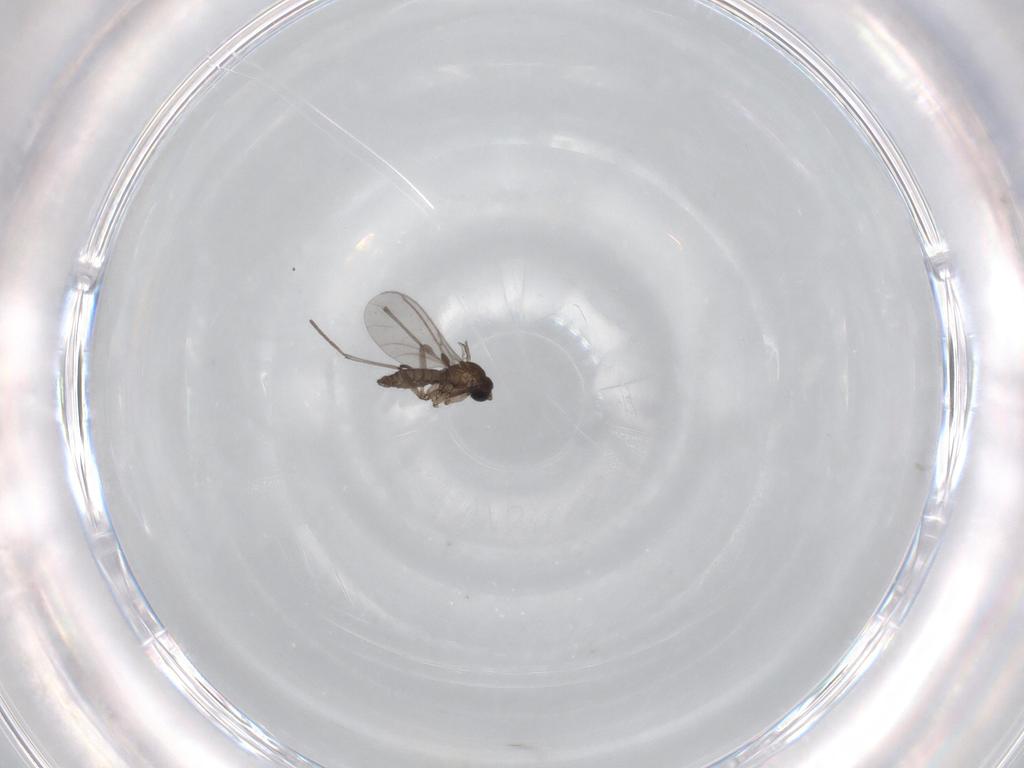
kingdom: Animalia
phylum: Arthropoda
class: Insecta
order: Diptera
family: Sciaridae
